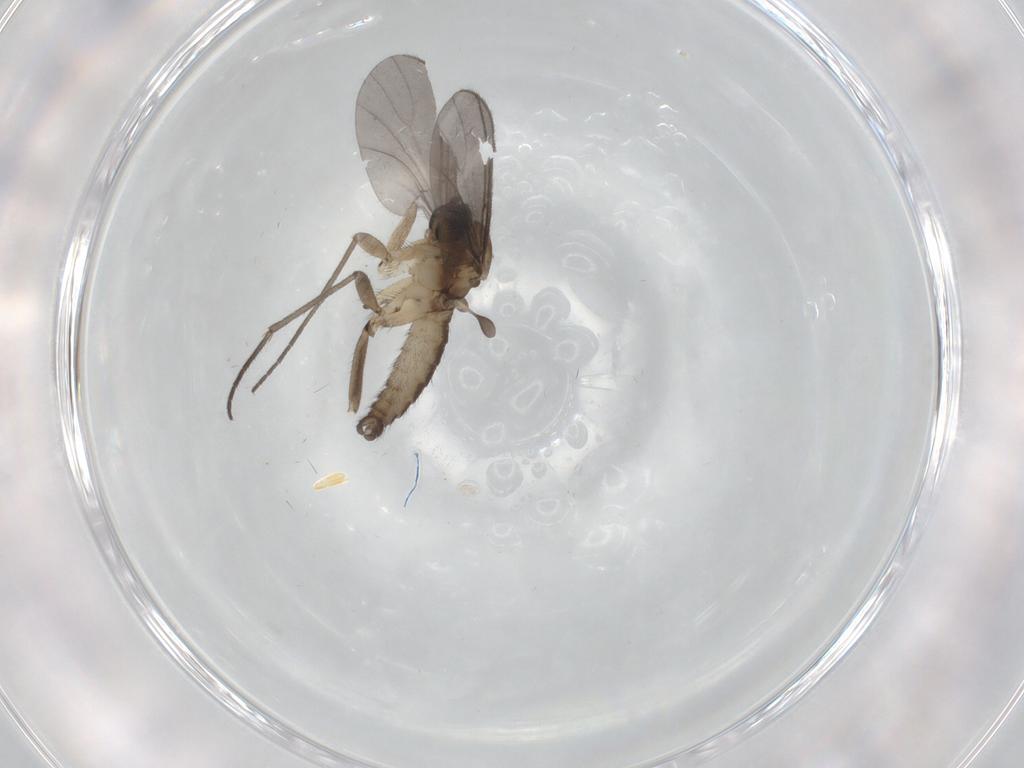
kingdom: Animalia
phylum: Arthropoda
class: Insecta
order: Diptera
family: Sciaridae
